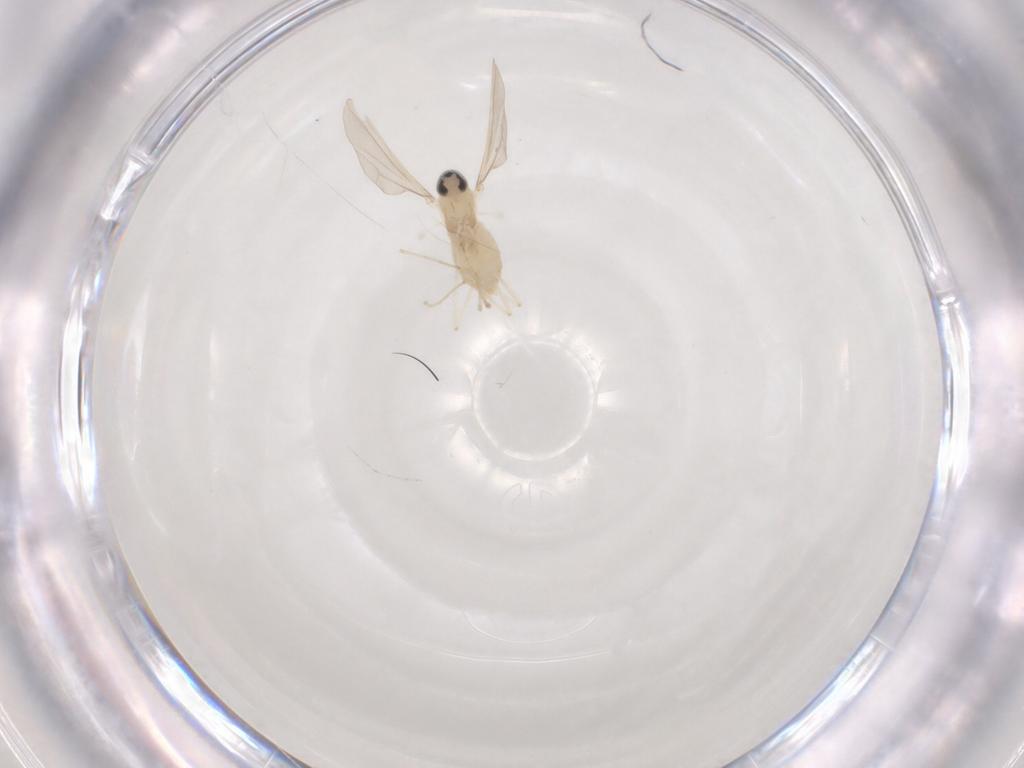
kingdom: Animalia
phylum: Arthropoda
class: Insecta
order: Diptera
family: Cecidomyiidae
